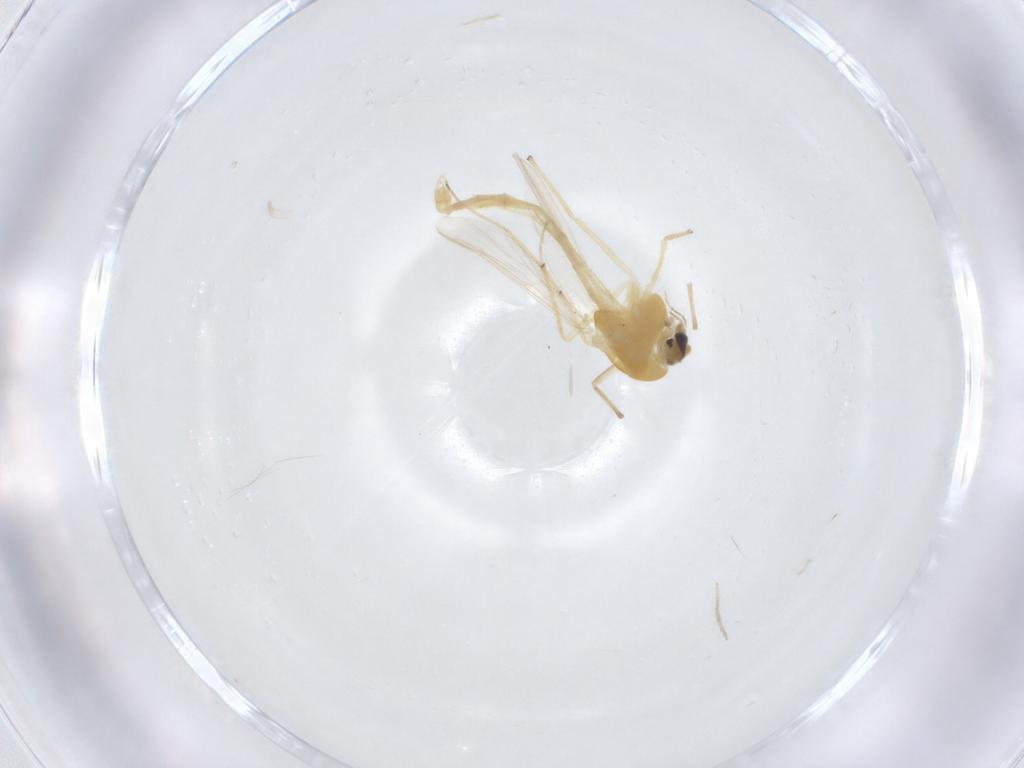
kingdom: Animalia
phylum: Arthropoda
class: Insecta
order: Diptera
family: Chironomidae
